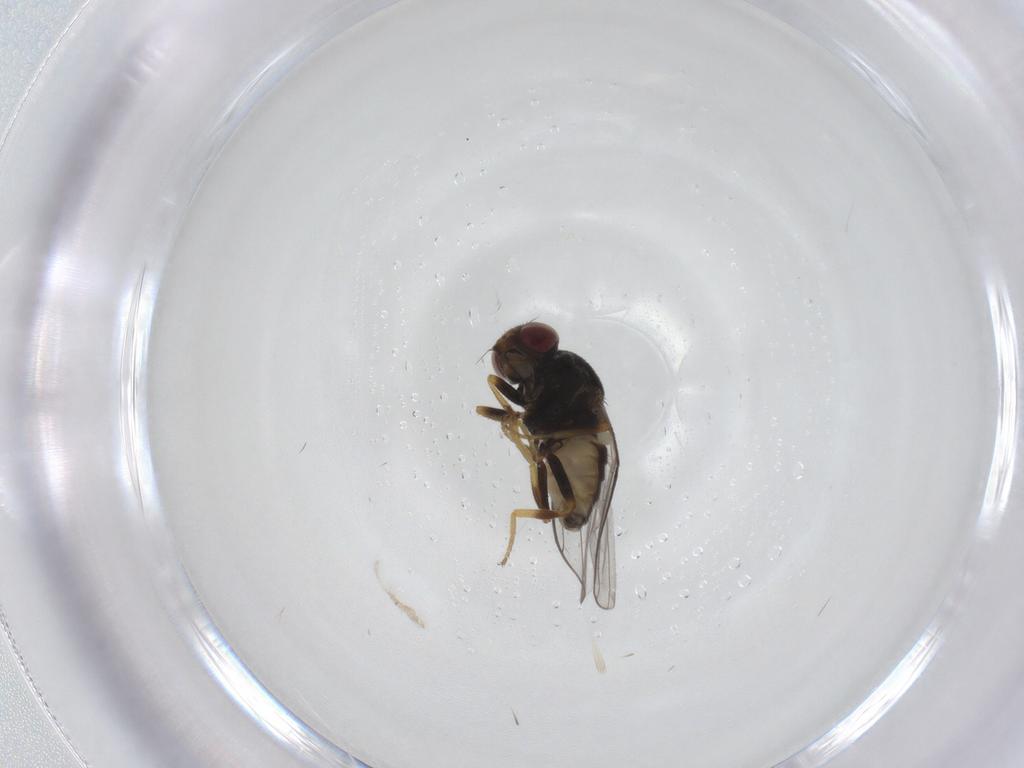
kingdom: Animalia
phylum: Arthropoda
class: Insecta
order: Diptera
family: Chloropidae
